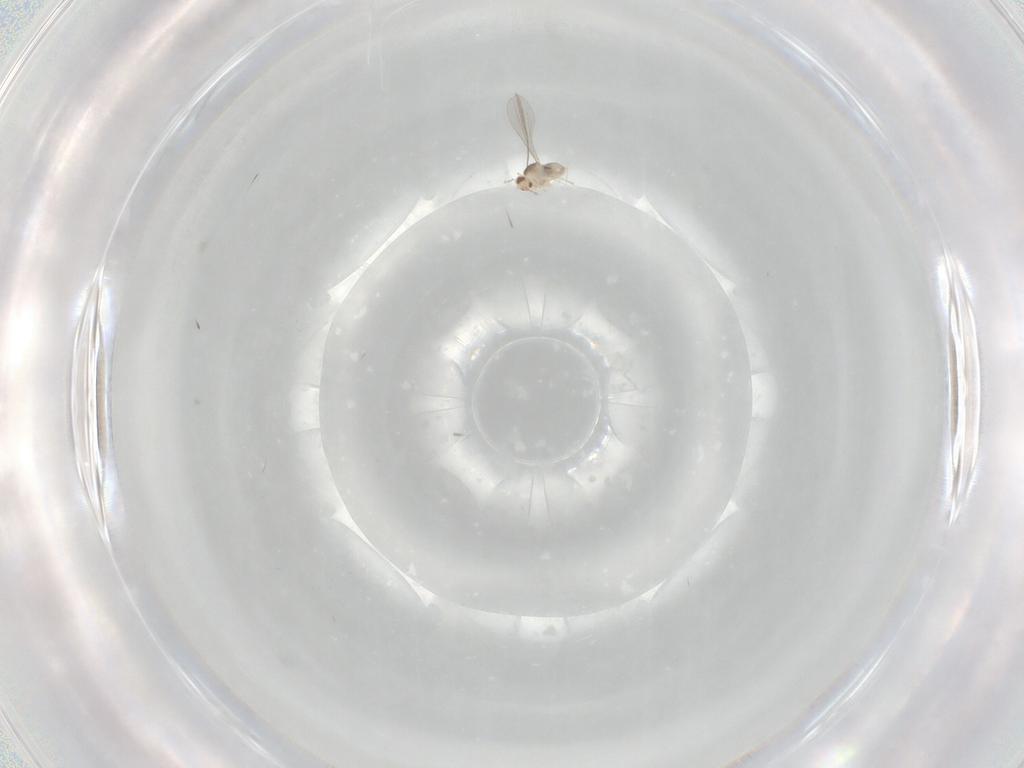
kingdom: Animalia
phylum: Arthropoda
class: Insecta
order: Diptera
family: Cecidomyiidae
